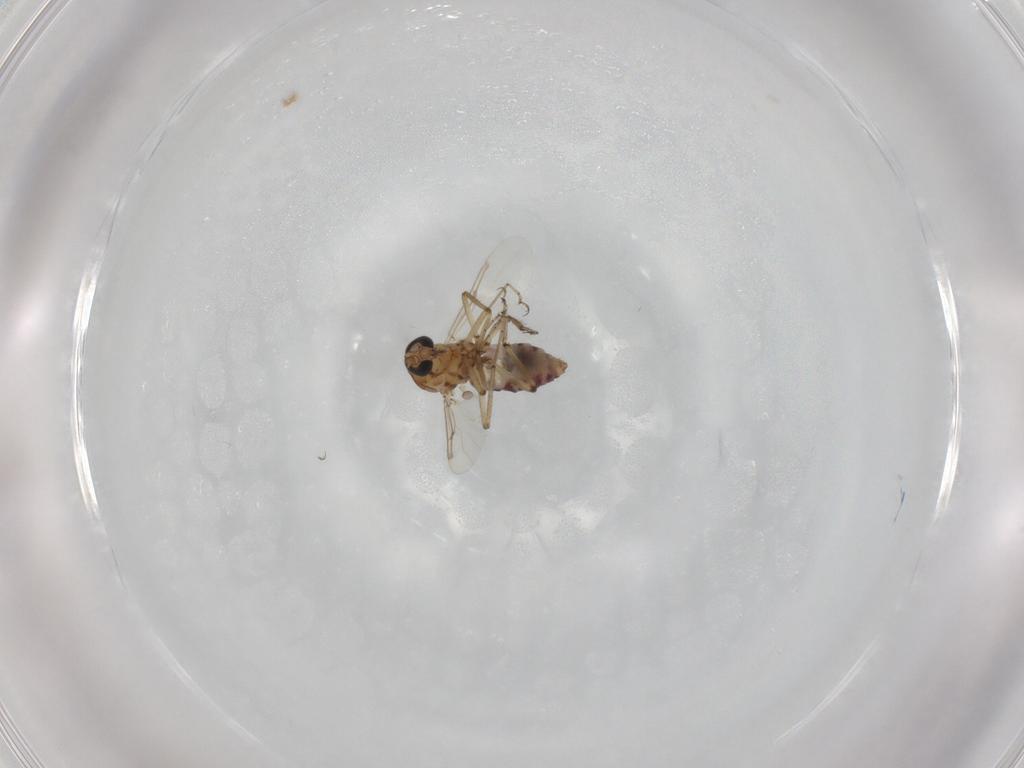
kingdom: Animalia
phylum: Arthropoda
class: Insecta
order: Diptera
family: Ceratopogonidae
